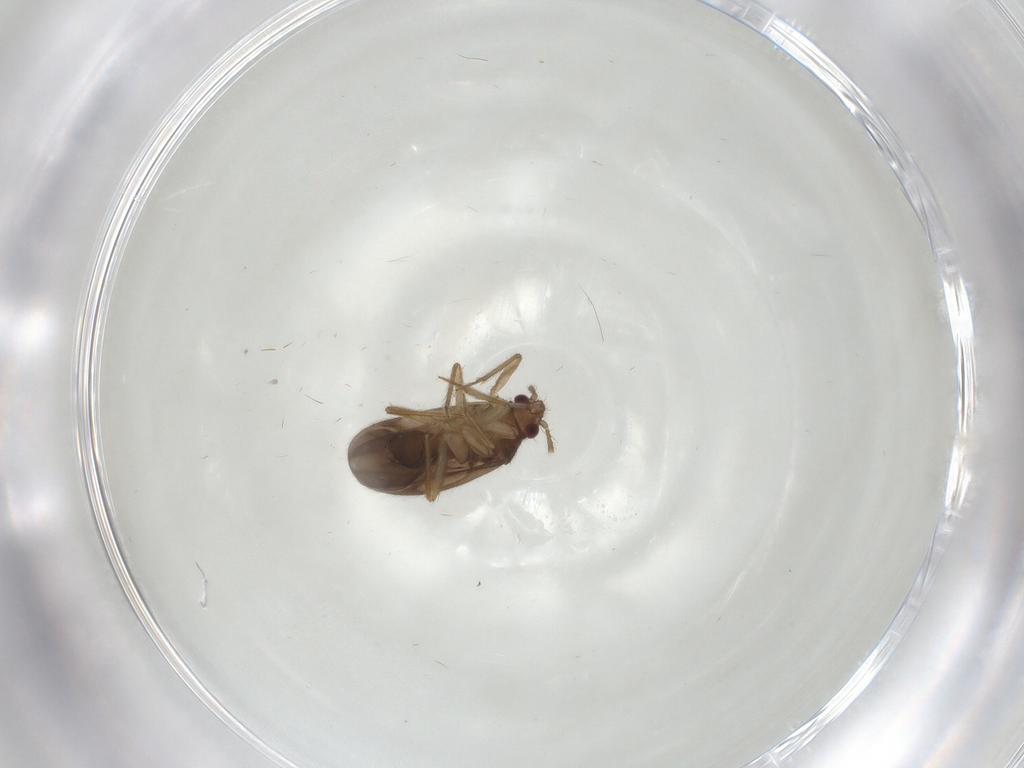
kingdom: Animalia
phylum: Arthropoda
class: Insecta
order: Hemiptera
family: Ceratocombidae
